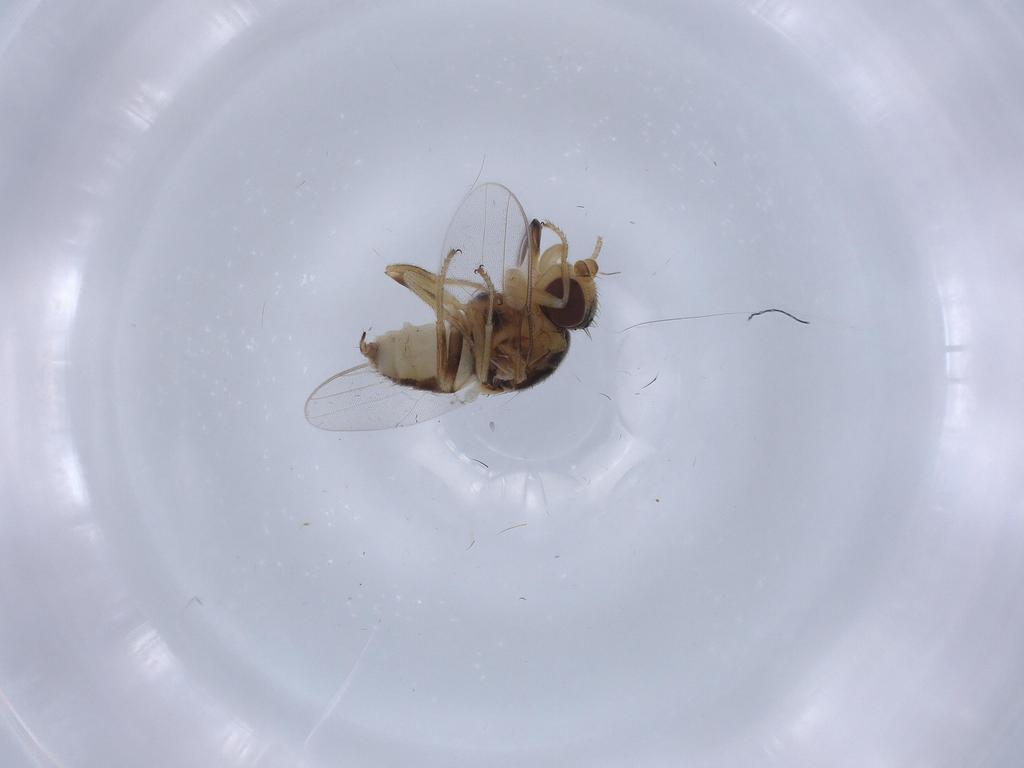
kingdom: Animalia
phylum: Arthropoda
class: Insecta
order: Diptera
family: Chloropidae
